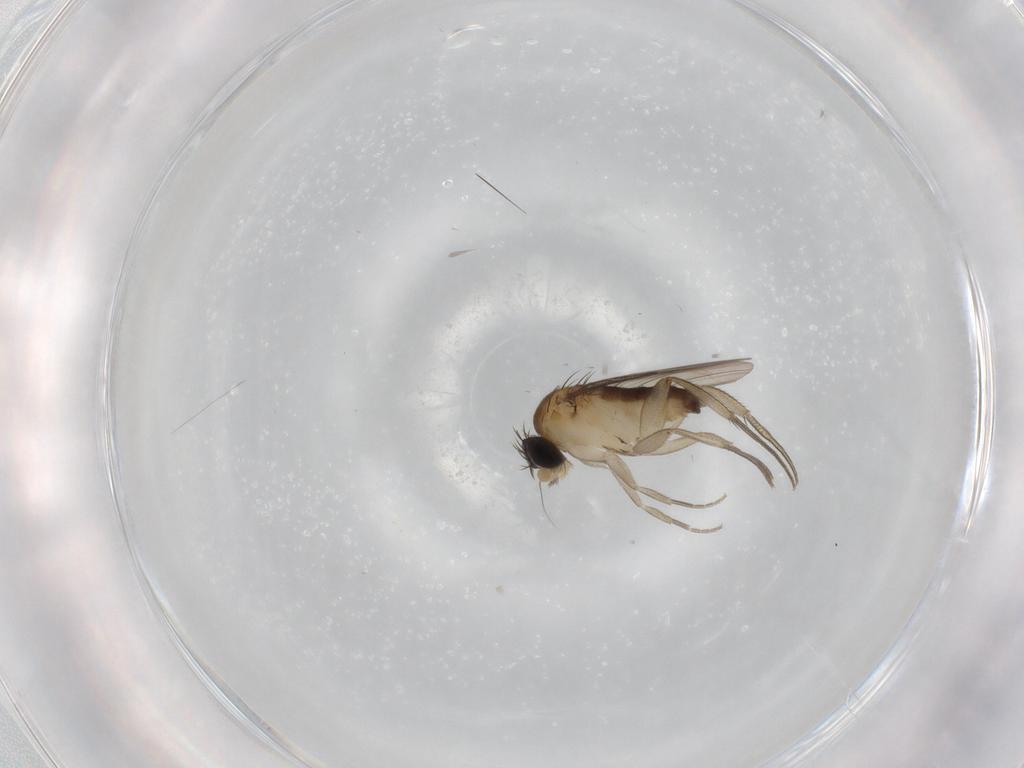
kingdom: Animalia
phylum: Arthropoda
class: Insecta
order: Diptera
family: Phoridae
